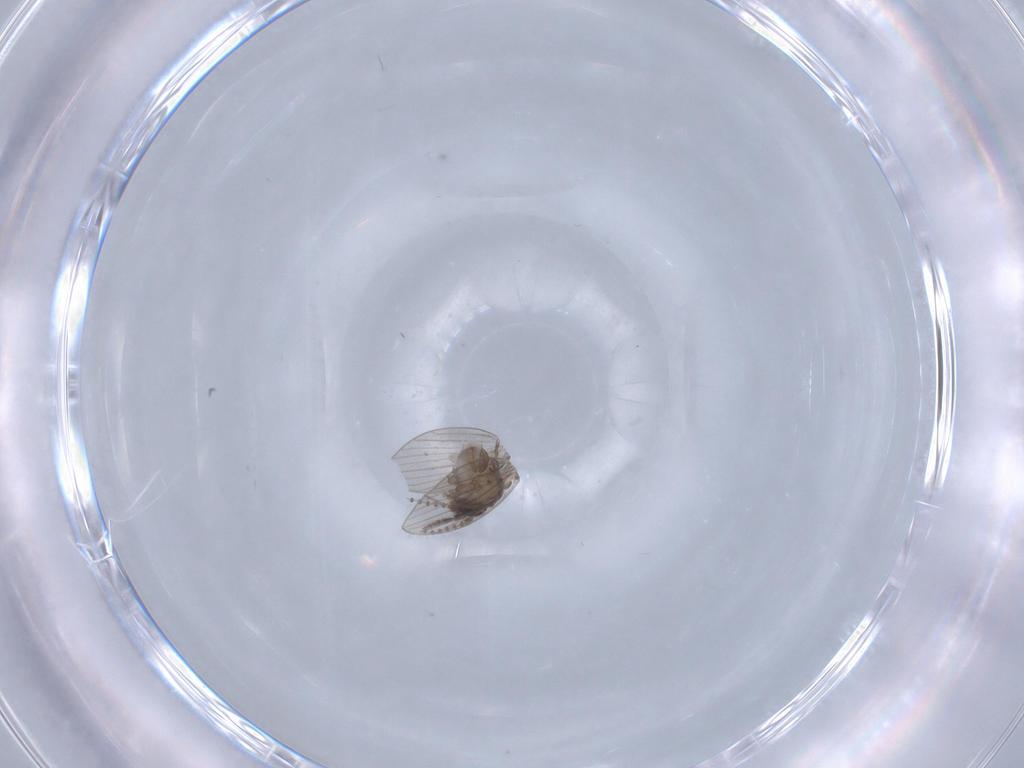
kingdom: Animalia
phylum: Arthropoda
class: Insecta
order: Diptera
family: Psychodidae
